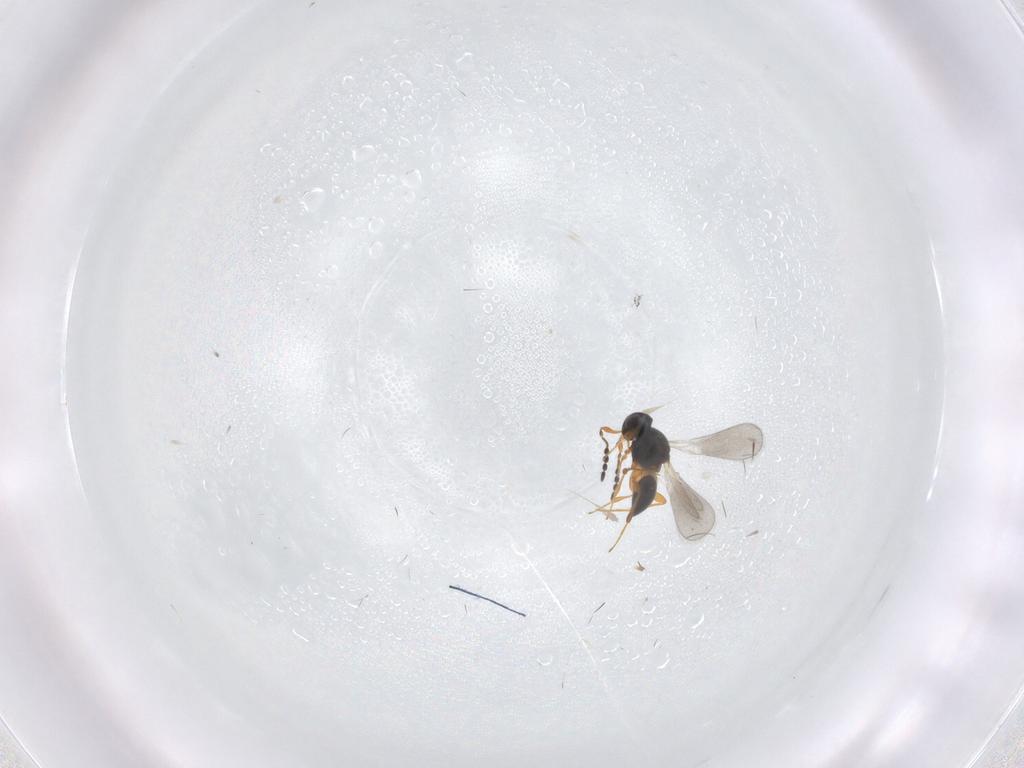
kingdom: Animalia
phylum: Arthropoda
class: Insecta
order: Hymenoptera
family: Platygastridae
